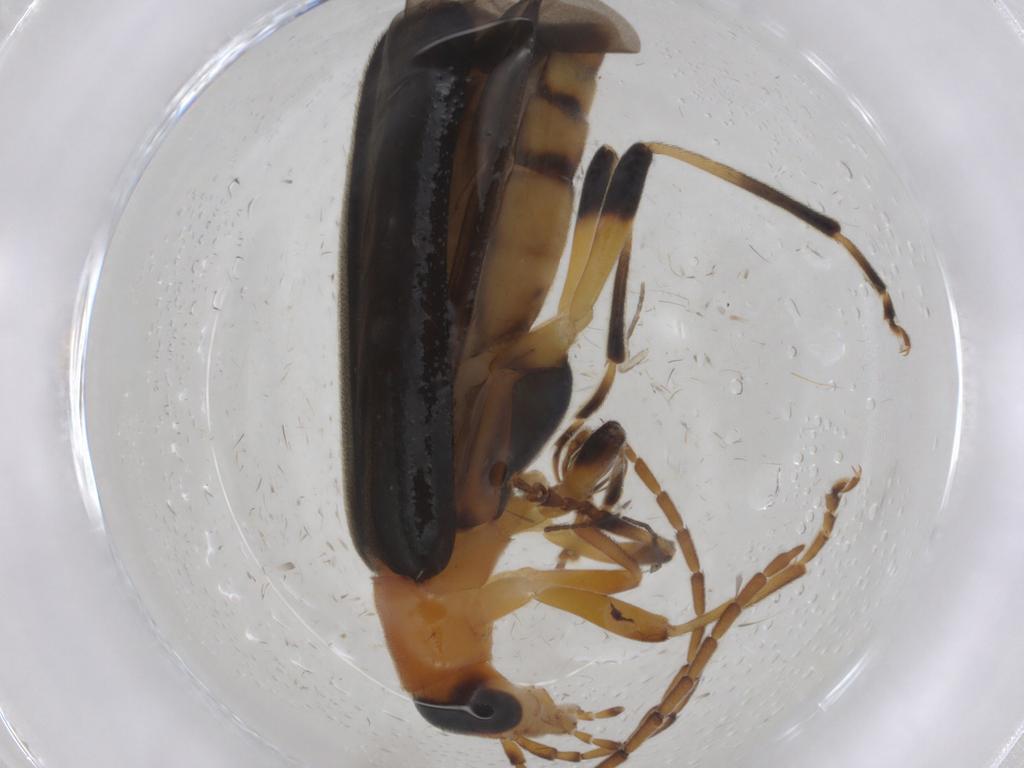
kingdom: Animalia
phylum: Arthropoda
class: Insecta
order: Coleoptera
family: Oedemeridae
